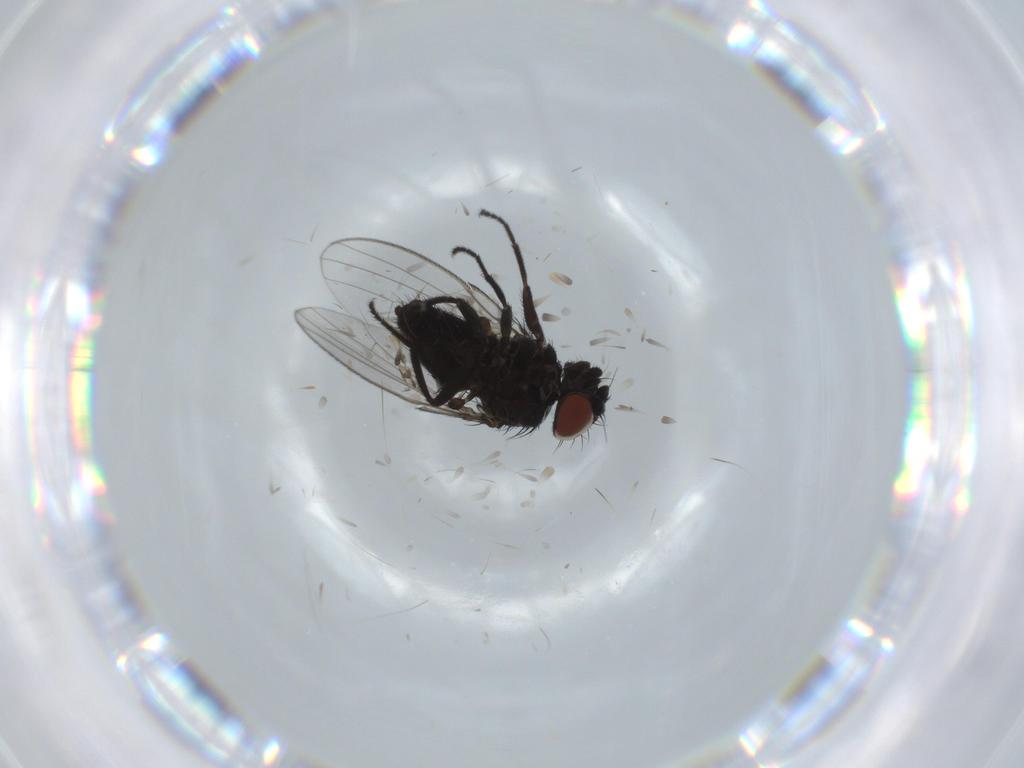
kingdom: Animalia
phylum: Arthropoda
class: Insecta
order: Diptera
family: Milichiidae
